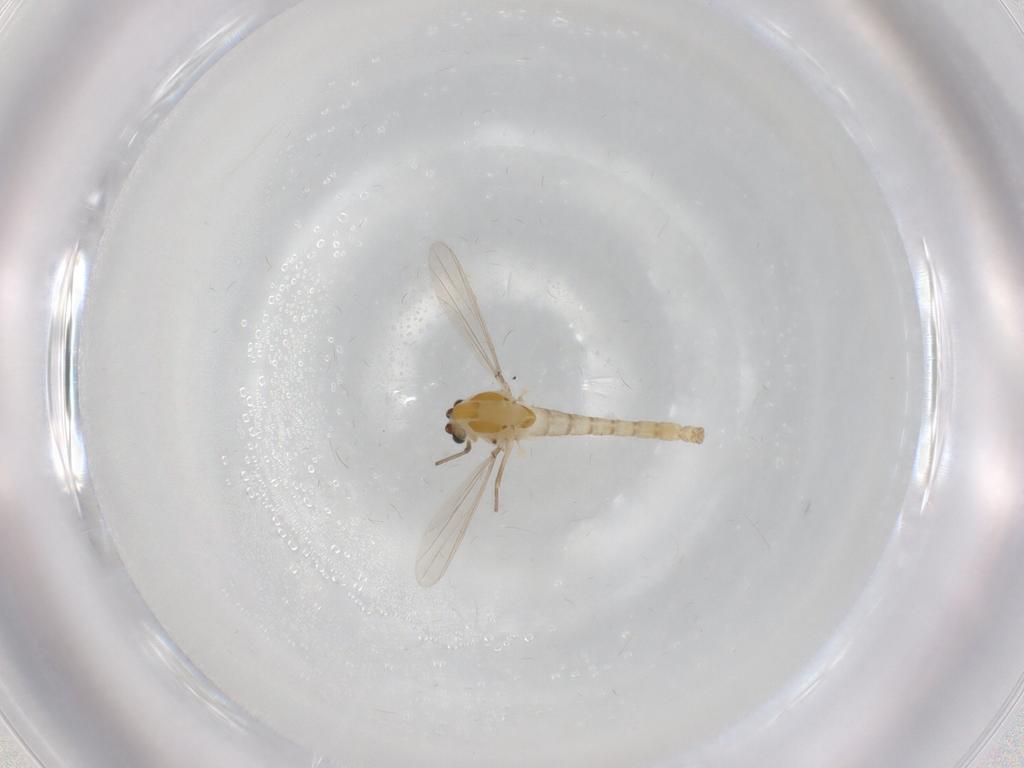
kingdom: Animalia
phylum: Arthropoda
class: Insecta
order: Diptera
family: Chironomidae
